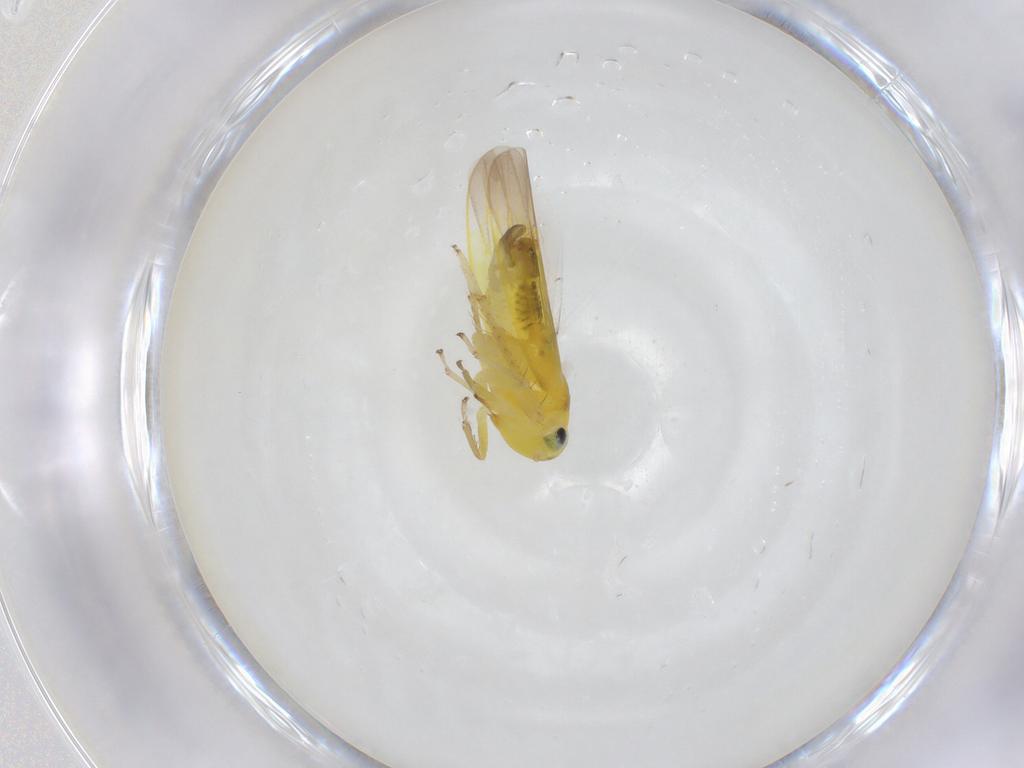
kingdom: Animalia
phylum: Arthropoda
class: Insecta
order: Hemiptera
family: Cicadellidae
